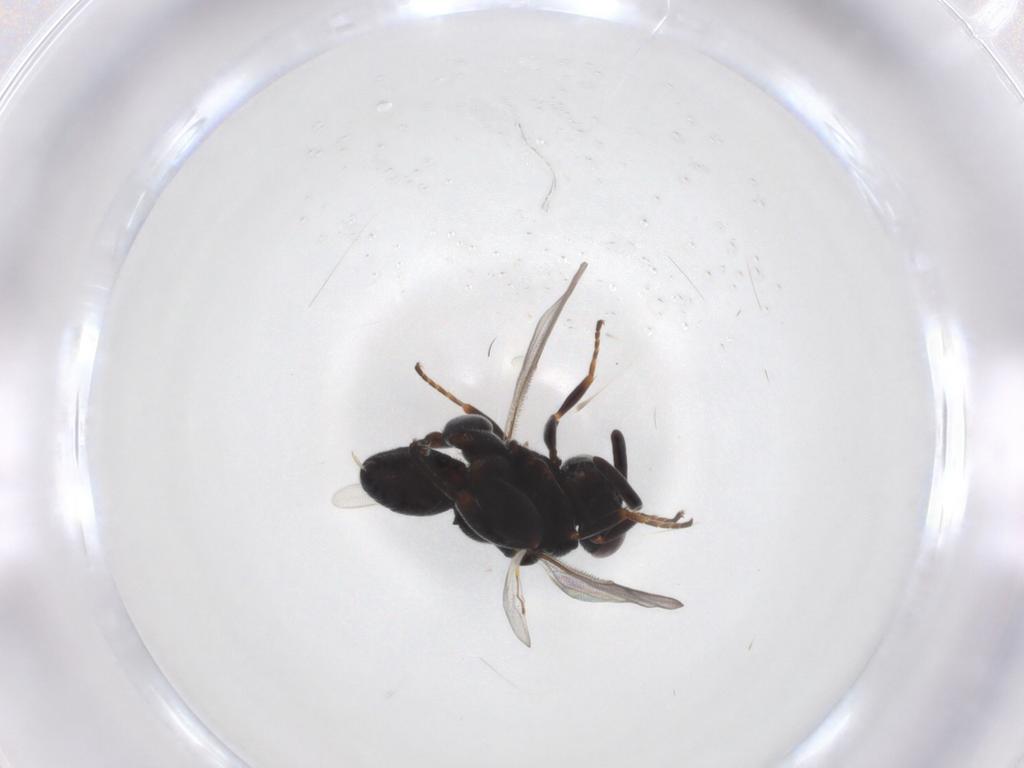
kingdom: Animalia
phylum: Arthropoda
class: Insecta
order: Hymenoptera
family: Chalcididae
